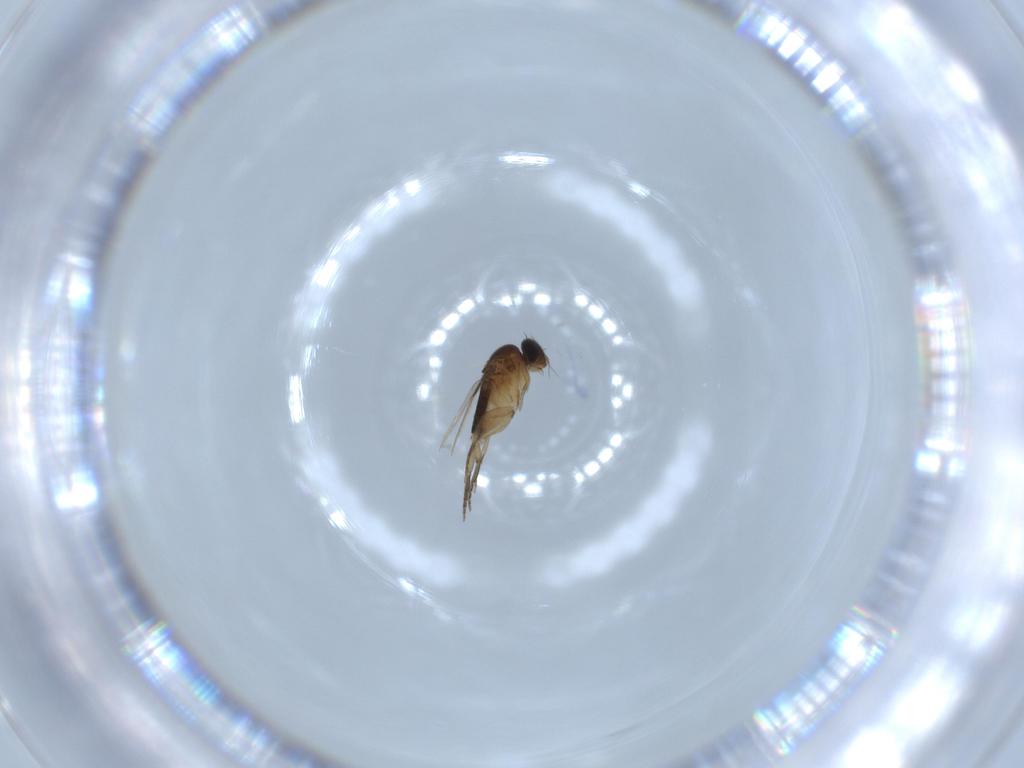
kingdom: Animalia
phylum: Arthropoda
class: Insecta
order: Diptera
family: Phoridae
